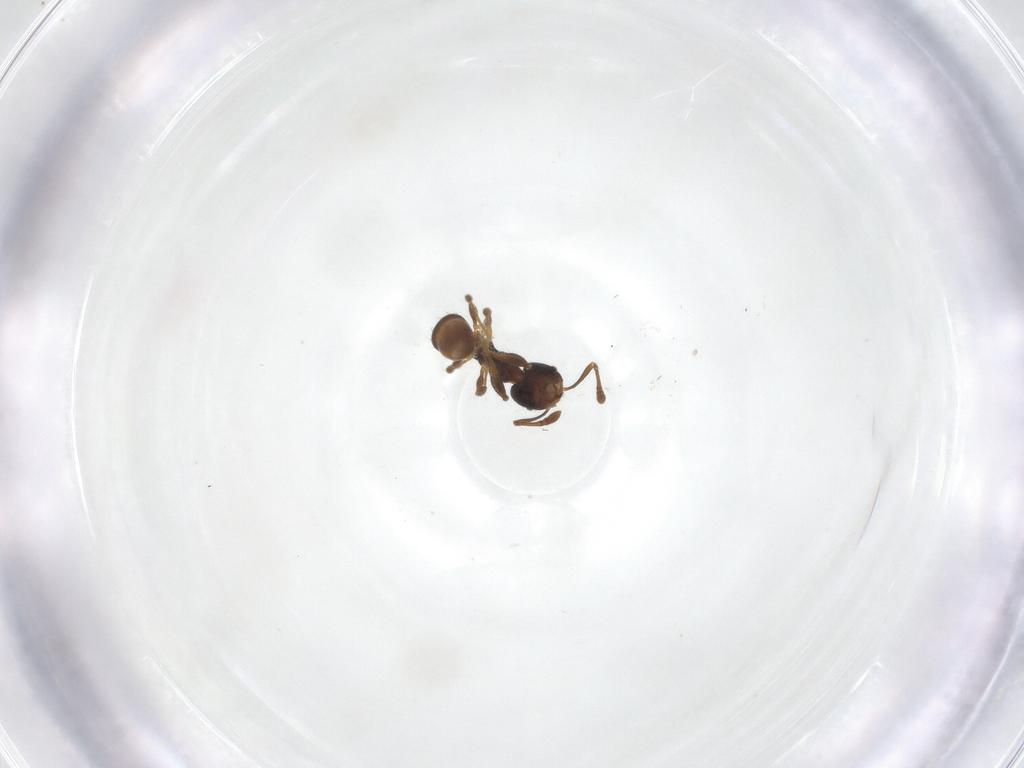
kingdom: Animalia
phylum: Arthropoda
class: Insecta
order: Hymenoptera
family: Formicidae
